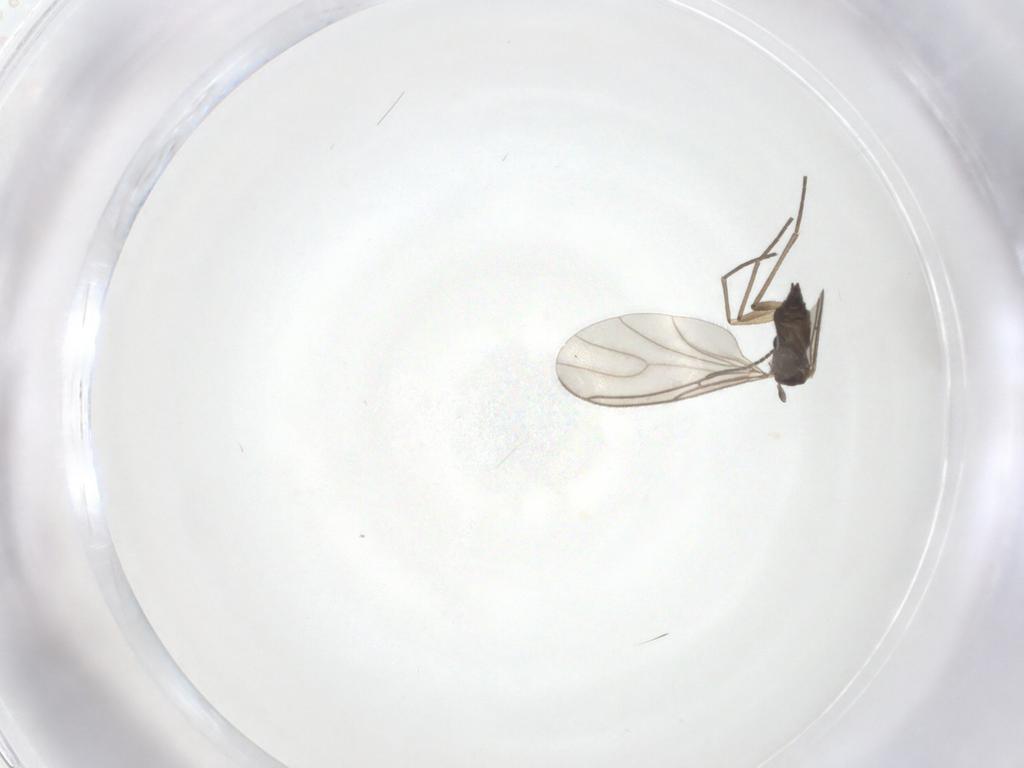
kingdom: Animalia
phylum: Arthropoda
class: Insecta
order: Diptera
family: Sciaridae
